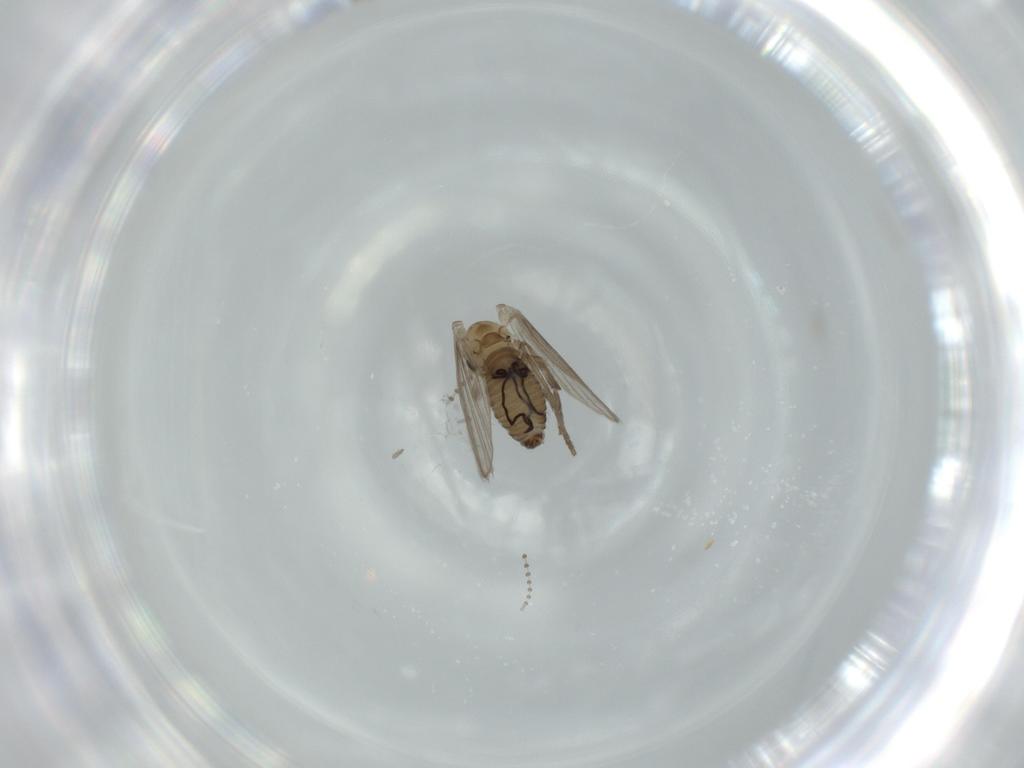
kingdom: Animalia
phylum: Arthropoda
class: Insecta
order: Diptera
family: Psychodidae
